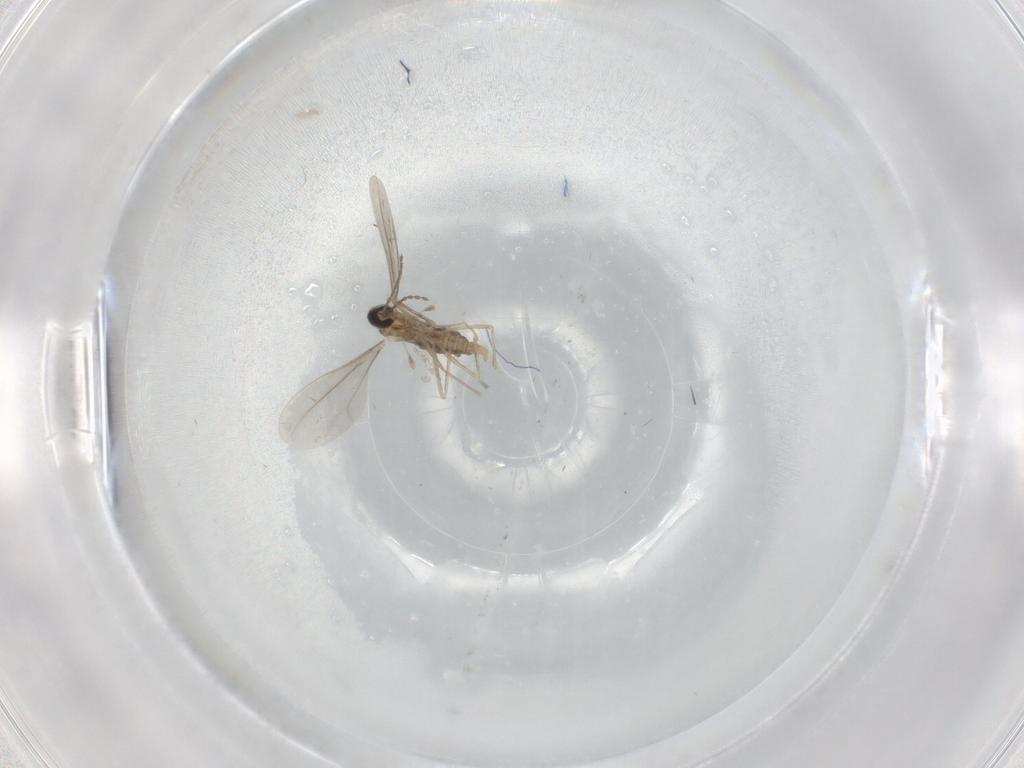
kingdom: Animalia
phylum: Arthropoda
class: Insecta
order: Diptera
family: Cecidomyiidae
